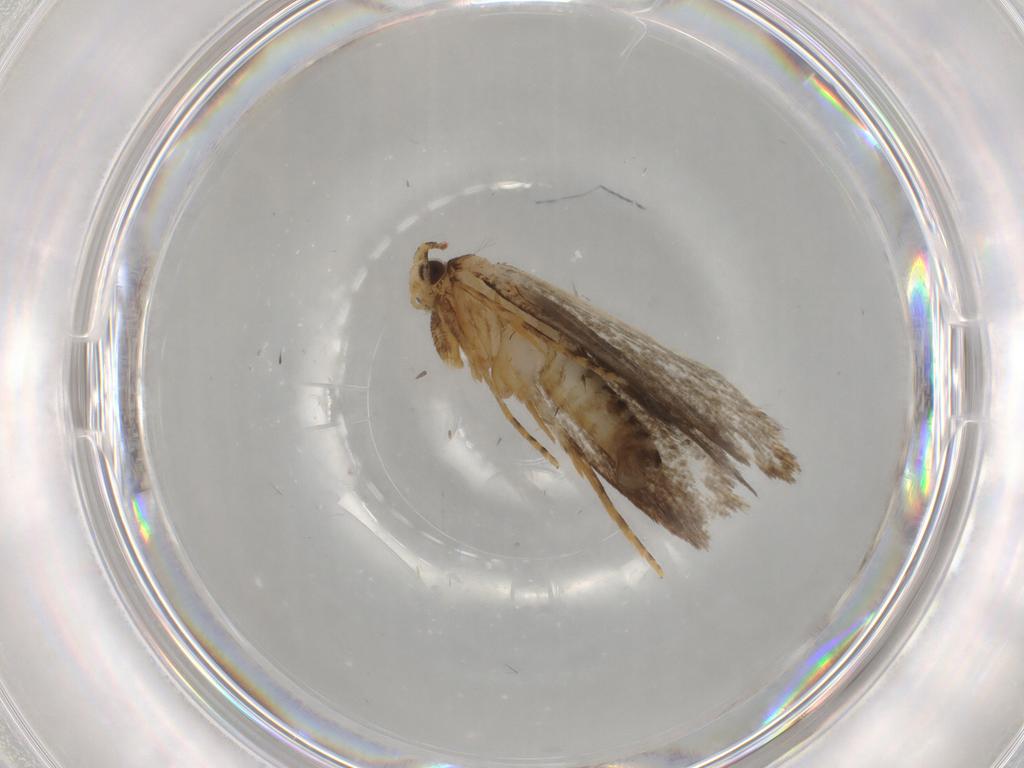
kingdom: Animalia
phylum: Arthropoda
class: Insecta
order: Lepidoptera
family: Tineidae
